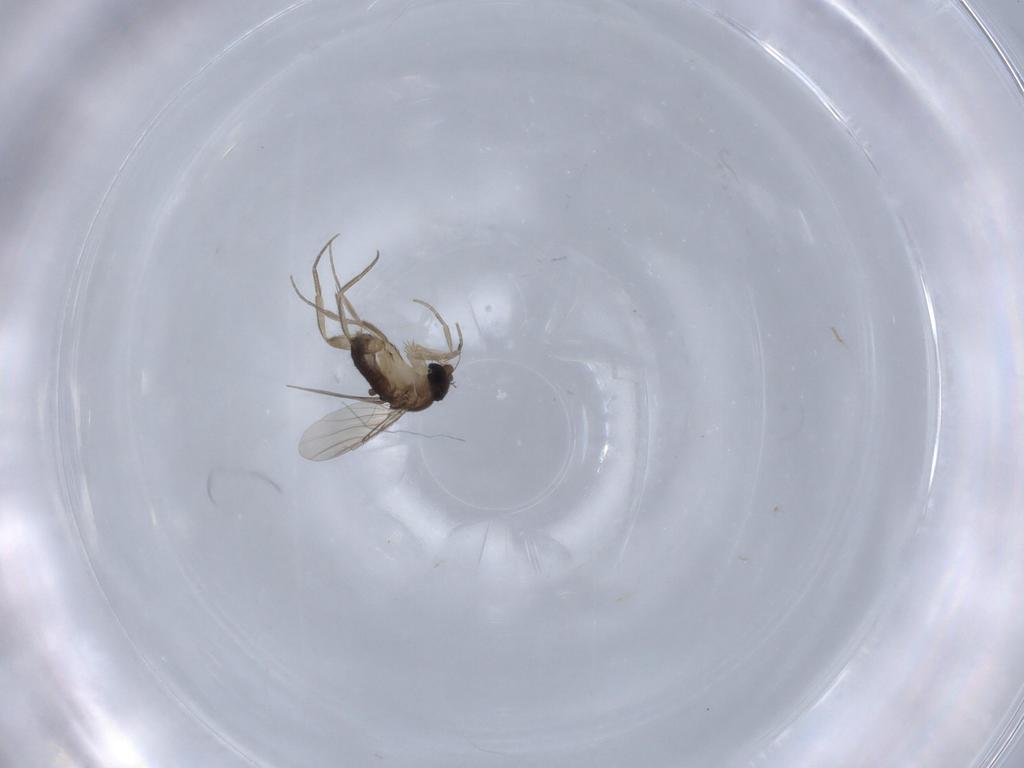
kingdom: Animalia
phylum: Arthropoda
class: Insecta
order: Diptera
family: Phoridae
